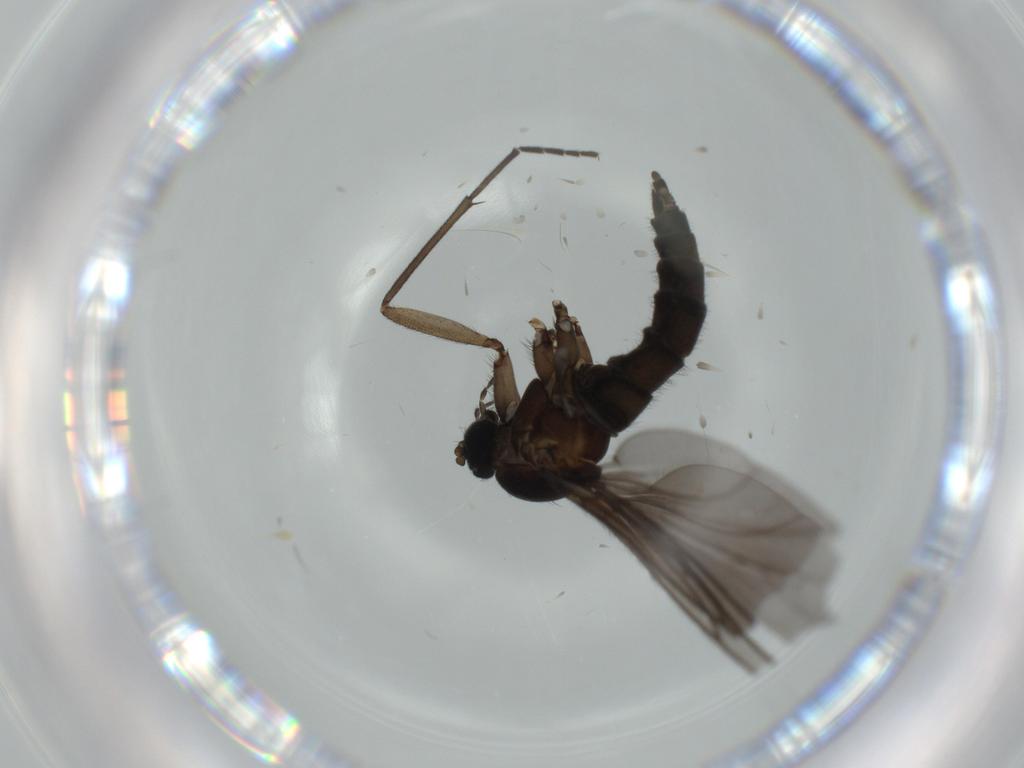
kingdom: Animalia
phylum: Arthropoda
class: Insecta
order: Diptera
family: Sciaridae
